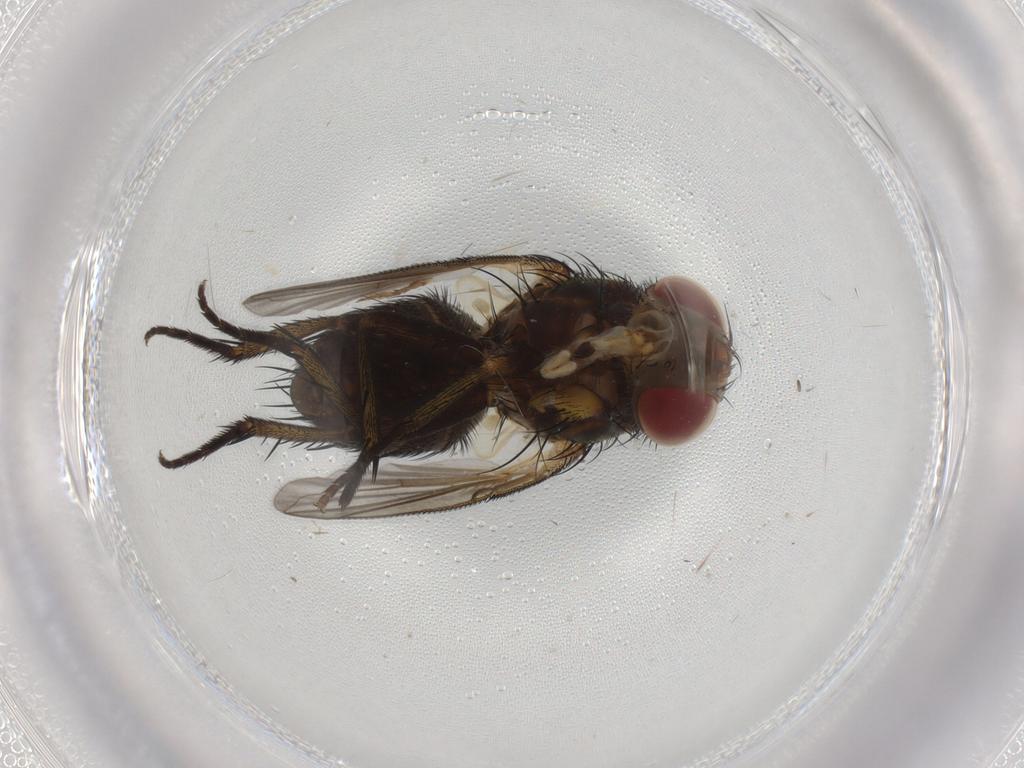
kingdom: Animalia
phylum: Arthropoda
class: Insecta
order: Diptera
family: Tachinidae
